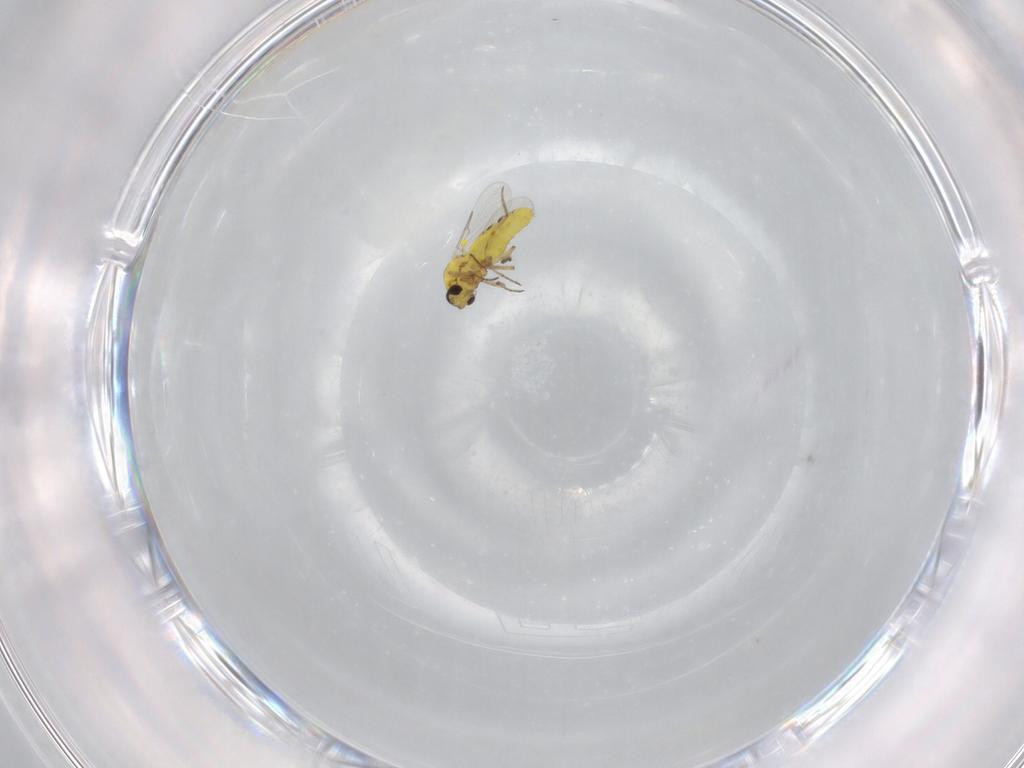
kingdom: Animalia
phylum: Arthropoda
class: Insecta
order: Diptera
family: Ceratopogonidae
